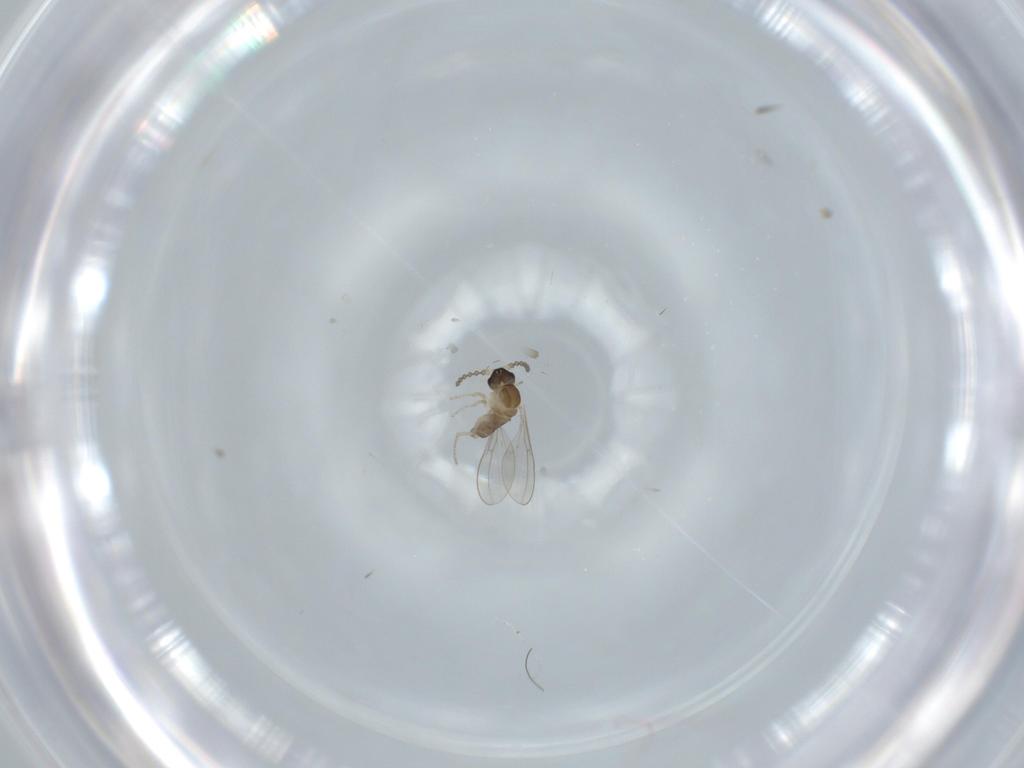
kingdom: Animalia
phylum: Arthropoda
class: Insecta
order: Diptera
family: Cecidomyiidae
